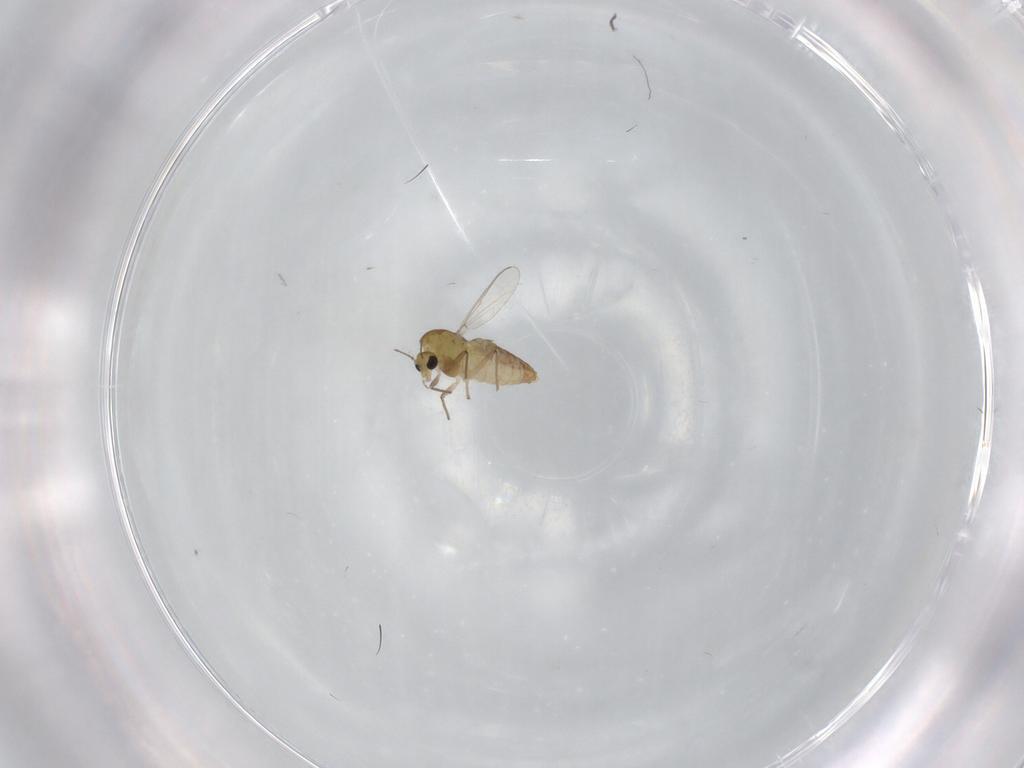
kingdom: Animalia
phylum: Arthropoda
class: Insecta
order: Diptera
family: Chironomidae
